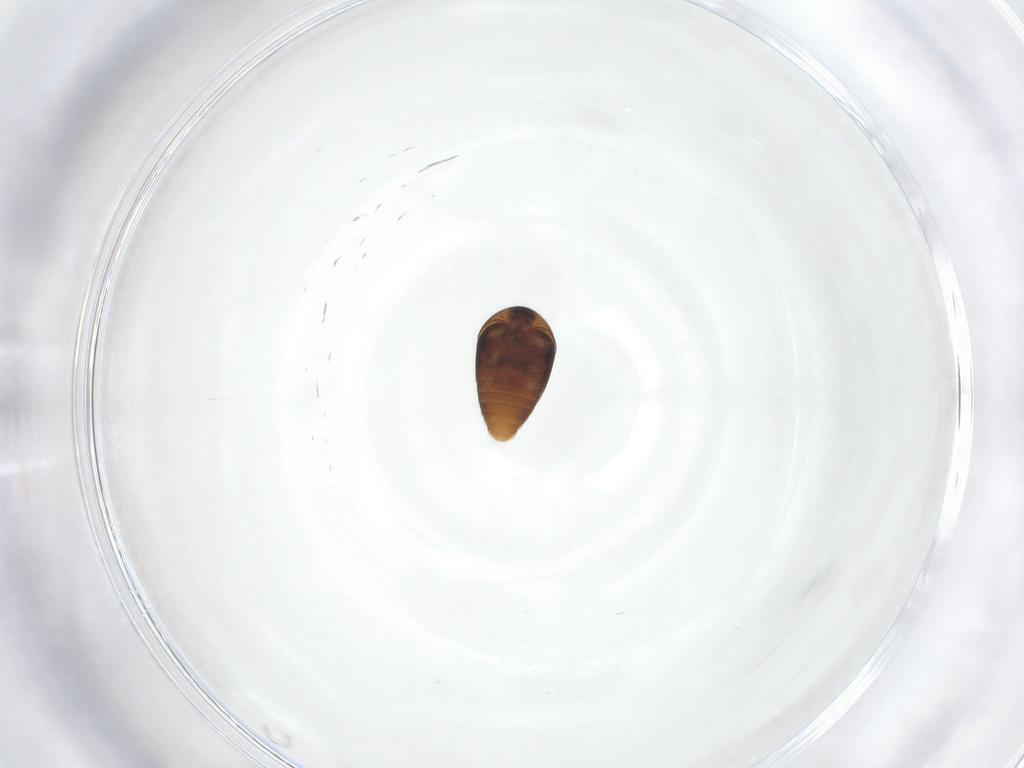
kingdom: Animalia
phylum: Arthropoda
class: Insecta
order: Coleoptera
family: Corylophidae
